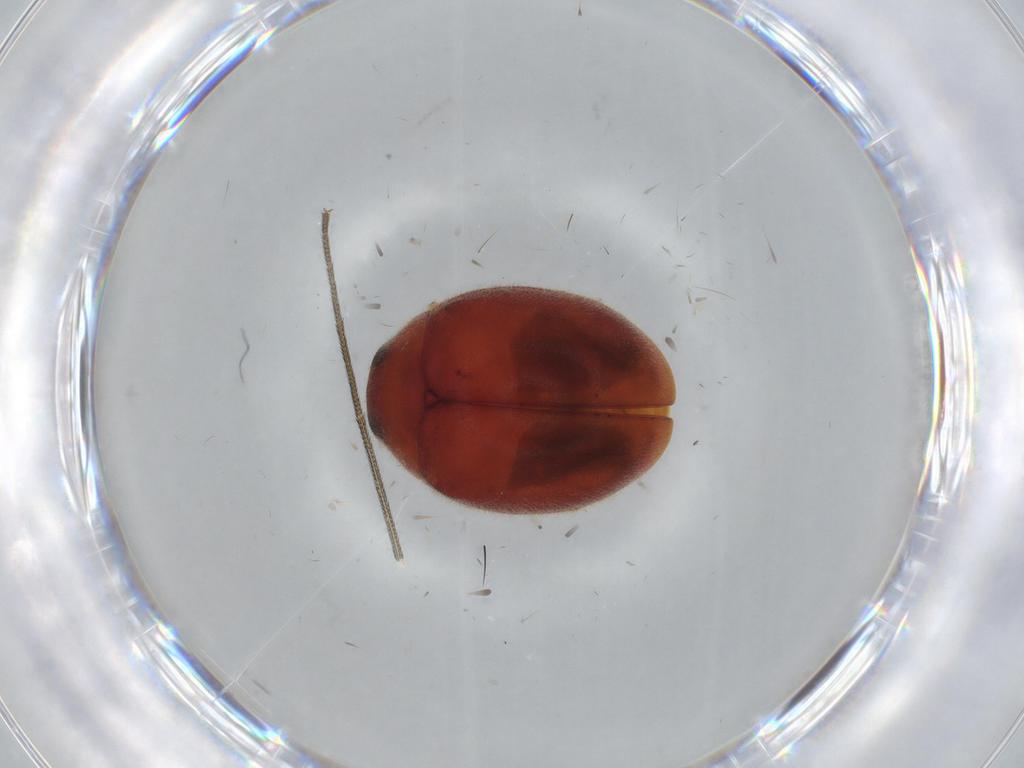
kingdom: Animalia
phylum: Arthropoda
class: Insecta
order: Coleoptera
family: Coccinellidae
